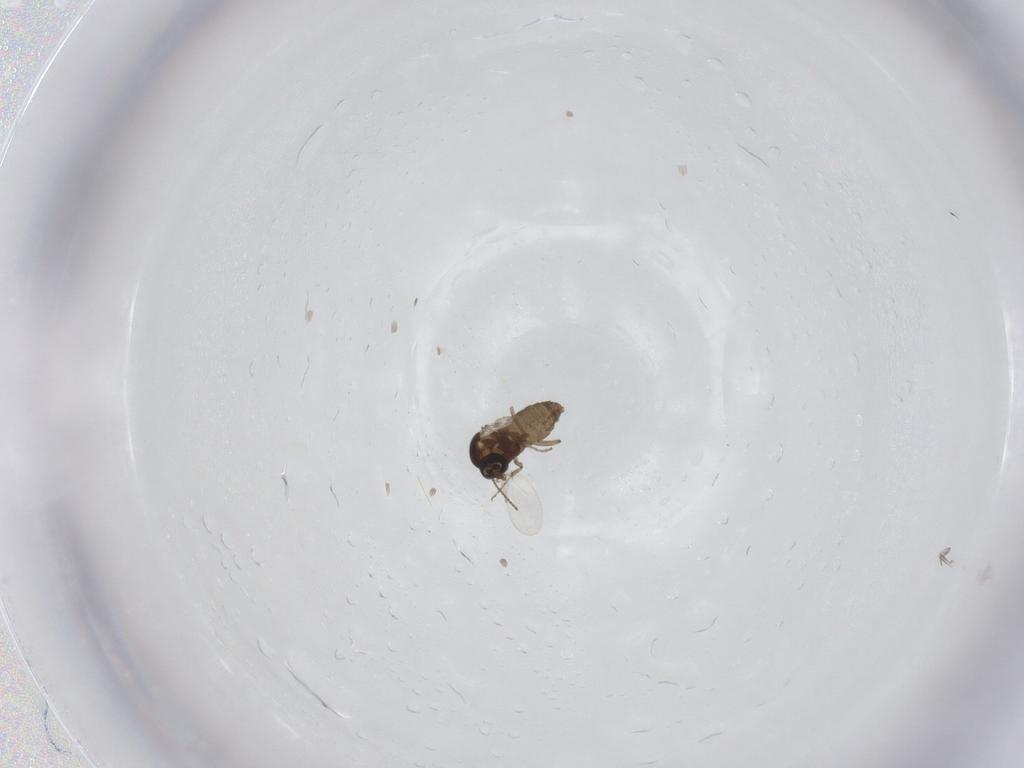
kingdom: Animalia
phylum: Arthropoda
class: Insecta
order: Diptera
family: Ceratopogonidae
